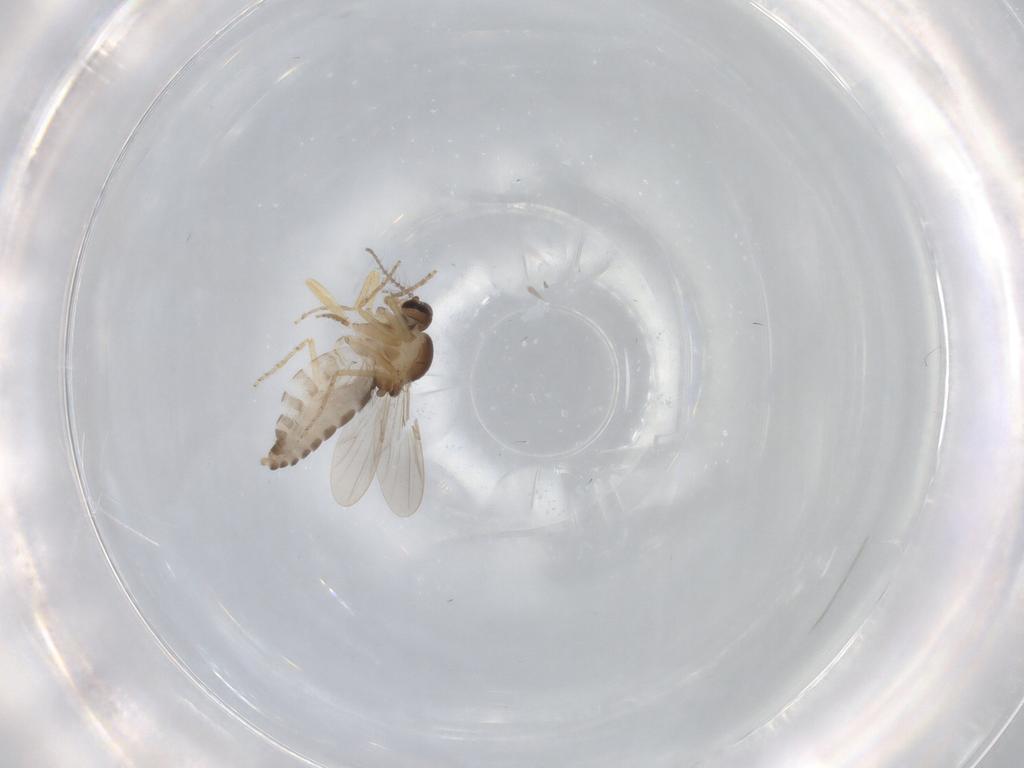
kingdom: Animalia
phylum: Arthropoda
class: Insecta
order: Diptera
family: Ceratopogonidae
